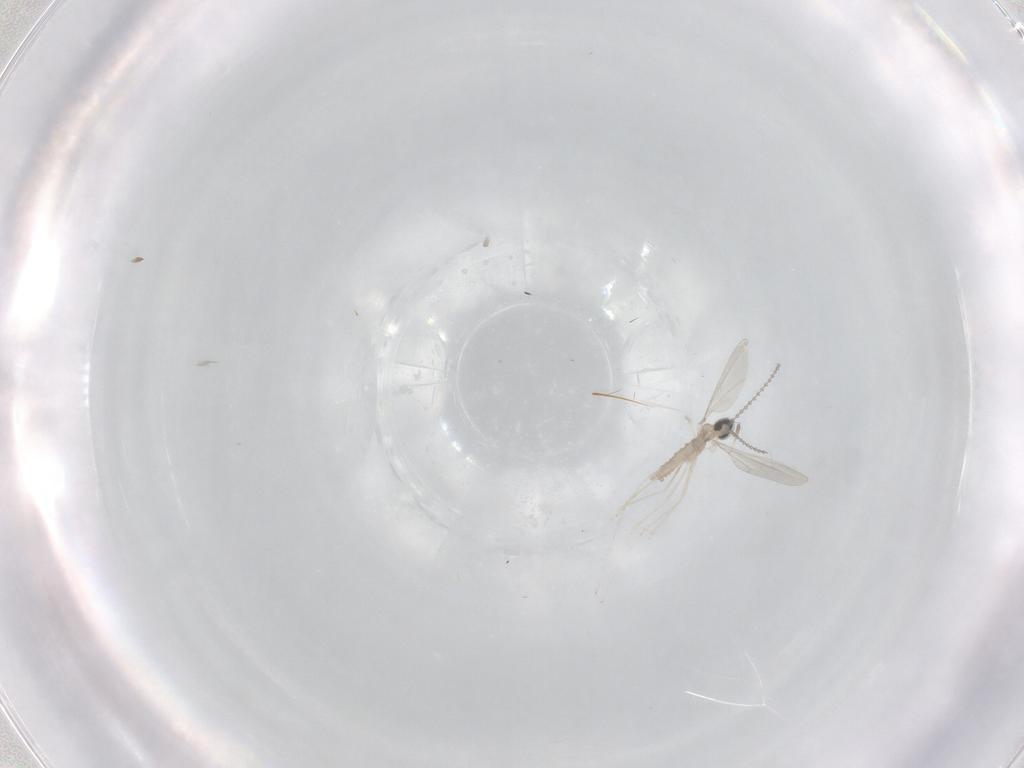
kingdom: Animalia
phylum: Arthropoda
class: Insecta
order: Diptera
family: Cecidomyiidae
